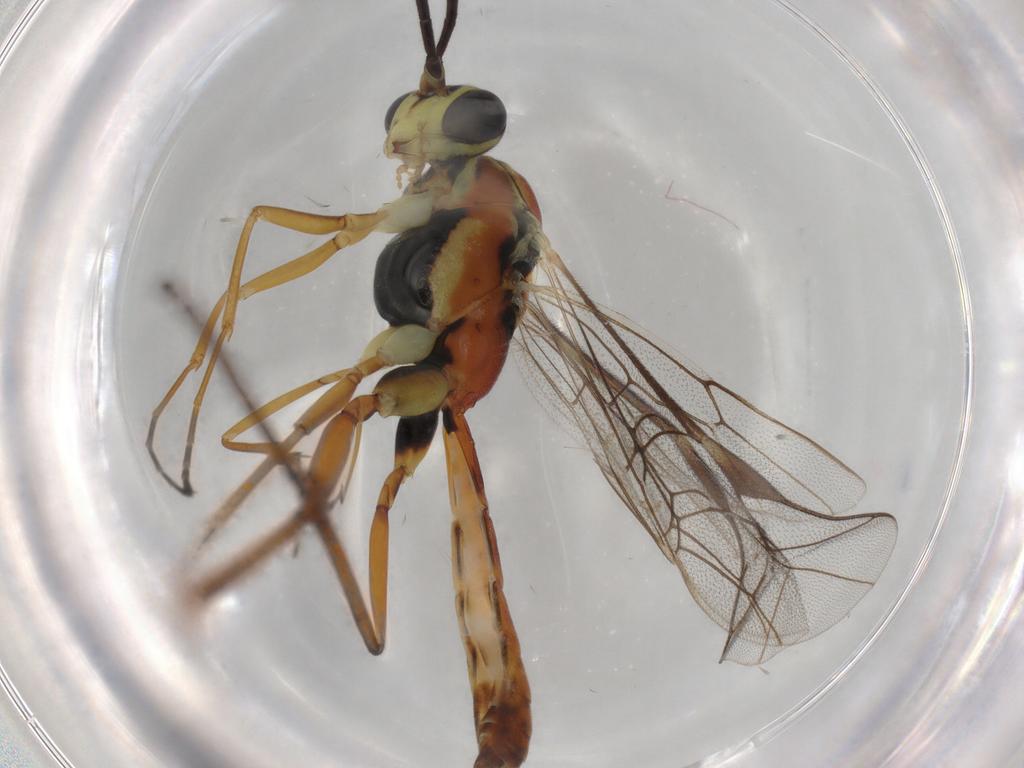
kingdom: Animalia
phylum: Arthropoda
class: Insecta
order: Hymenoptera
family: Ichneumonidae
